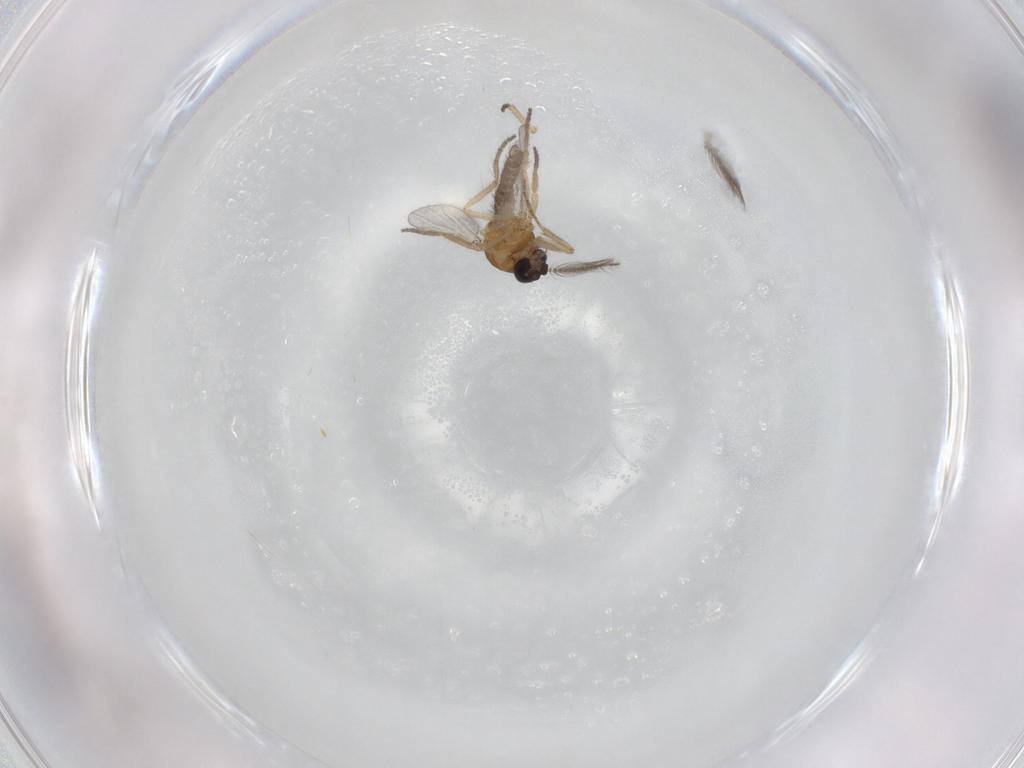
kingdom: Animalia
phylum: Arthropoda
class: Insecta
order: Diptera
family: Ceratopogonidae
